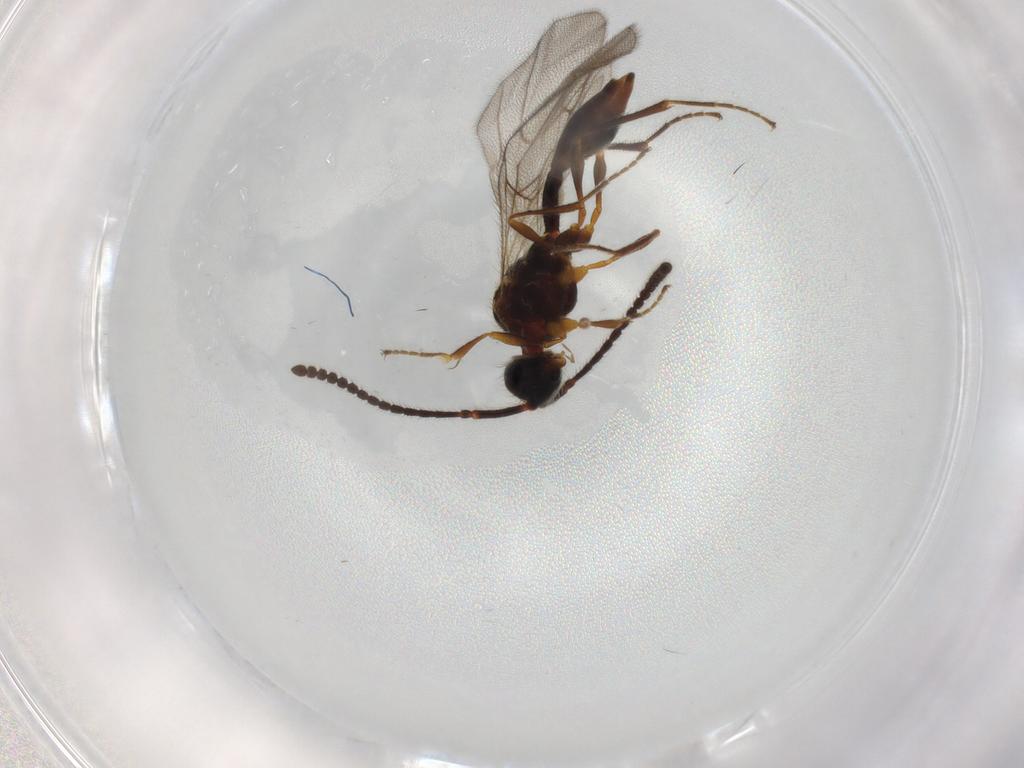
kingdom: Animalia
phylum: Arthropoda
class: Insecta
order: Hymenoptera
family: Diapriidae
